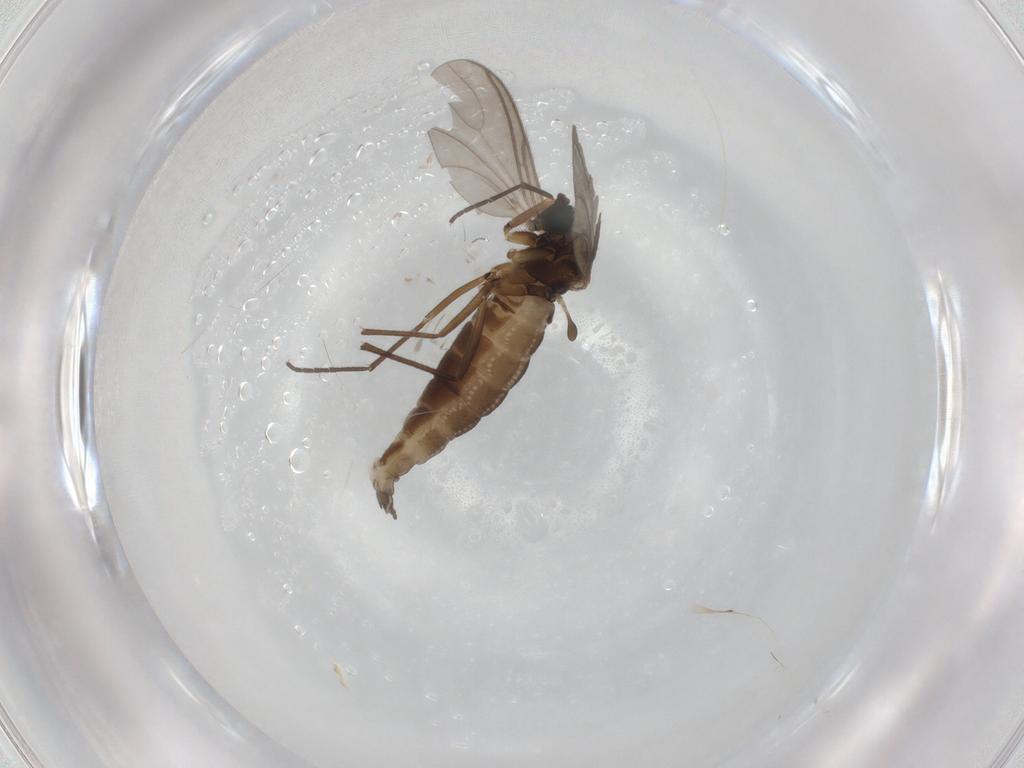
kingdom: Animalia
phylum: Arthropoda
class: Insecta
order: Diptera
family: Sciaridae
